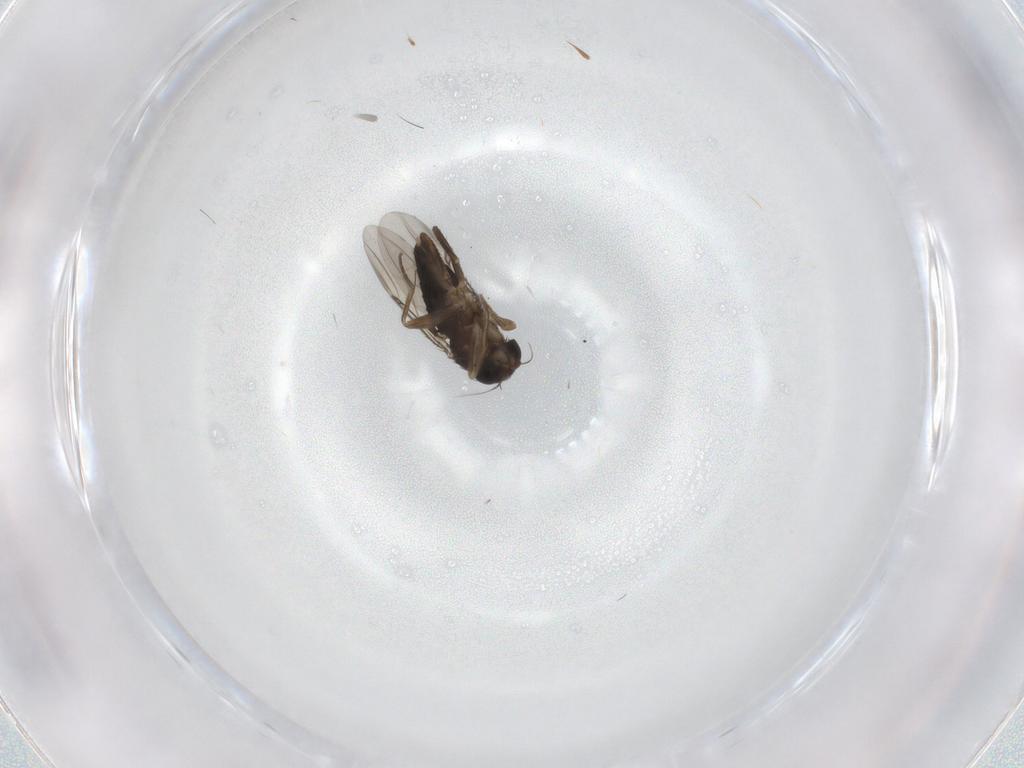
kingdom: Animalia
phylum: Arthropoda
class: Insecta
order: Diptera
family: Phoridae
